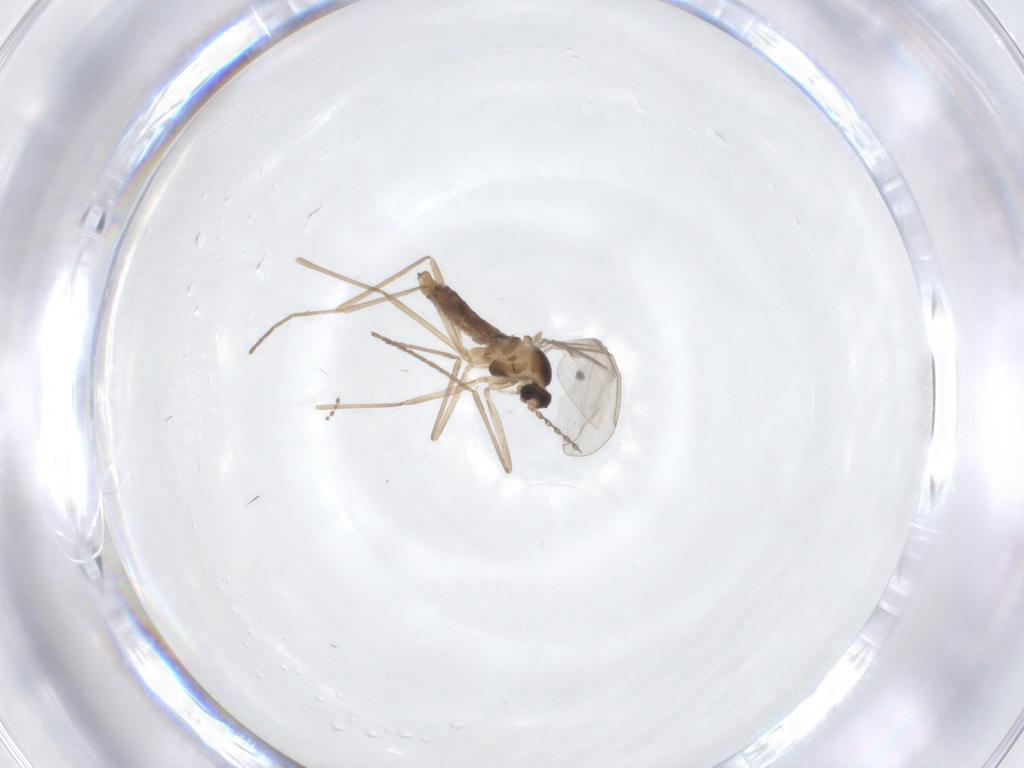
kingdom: Animalia
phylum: Arthropoda
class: Insecta
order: Diptera
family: Cecidomyiidae
